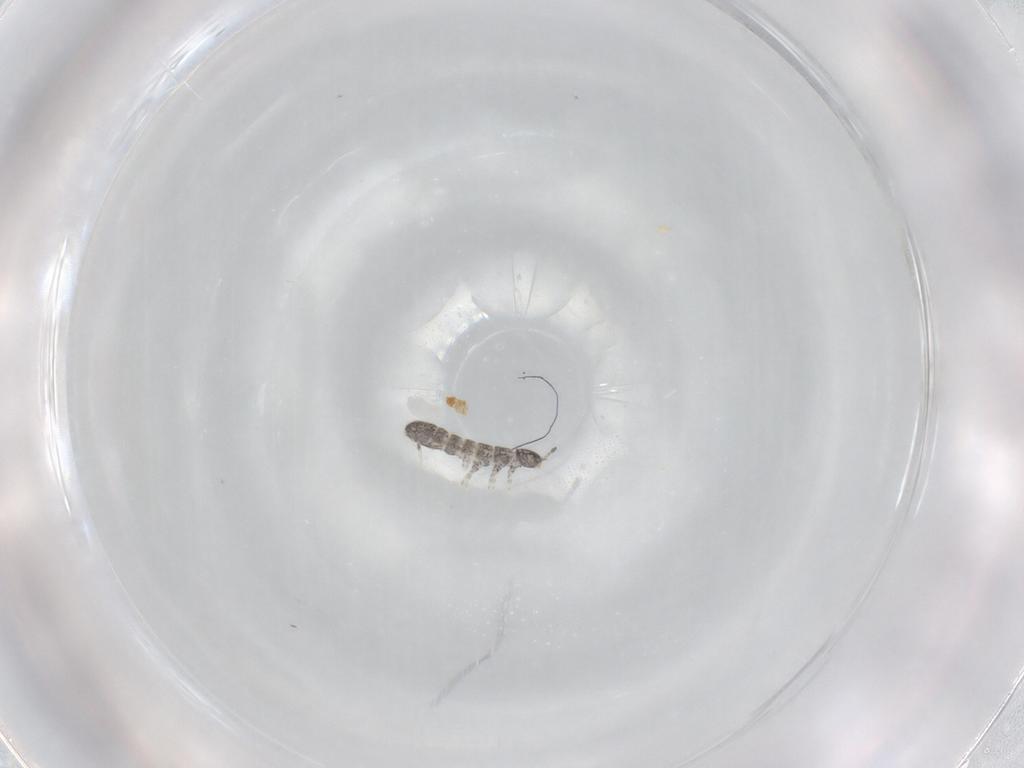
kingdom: Animalia
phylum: Arthropoda
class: Collembola
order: Entomobryomorpha
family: Isotomidae
